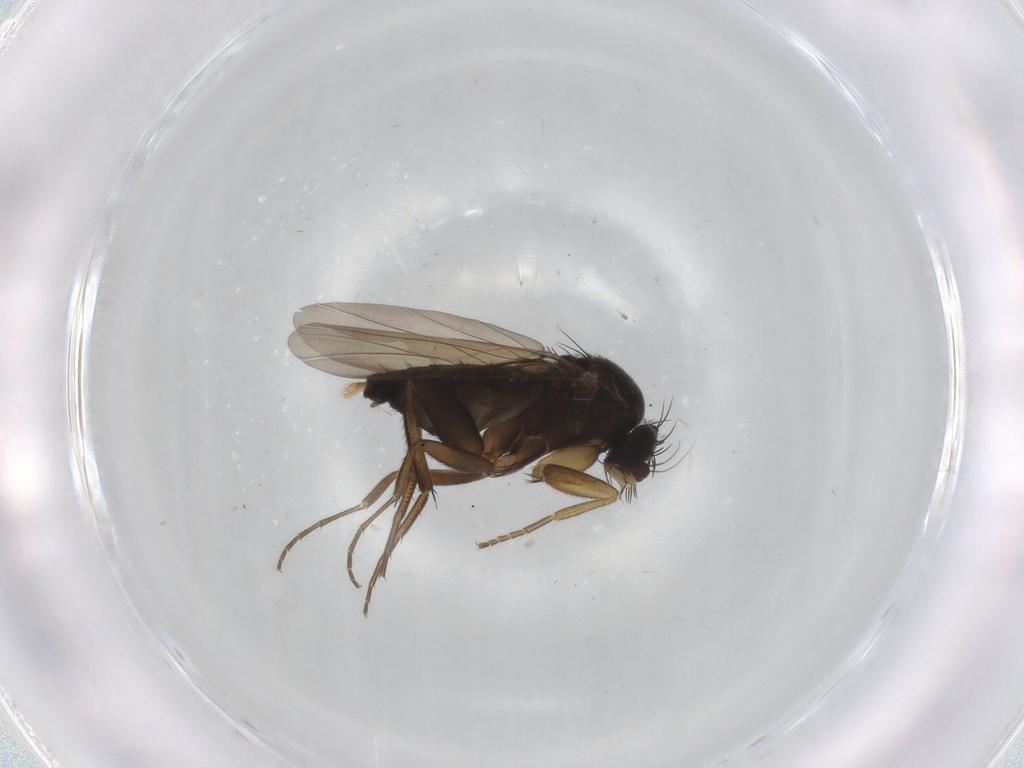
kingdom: Animalia
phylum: Arthropoda
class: Insecta
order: Diptera
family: Phoridae
